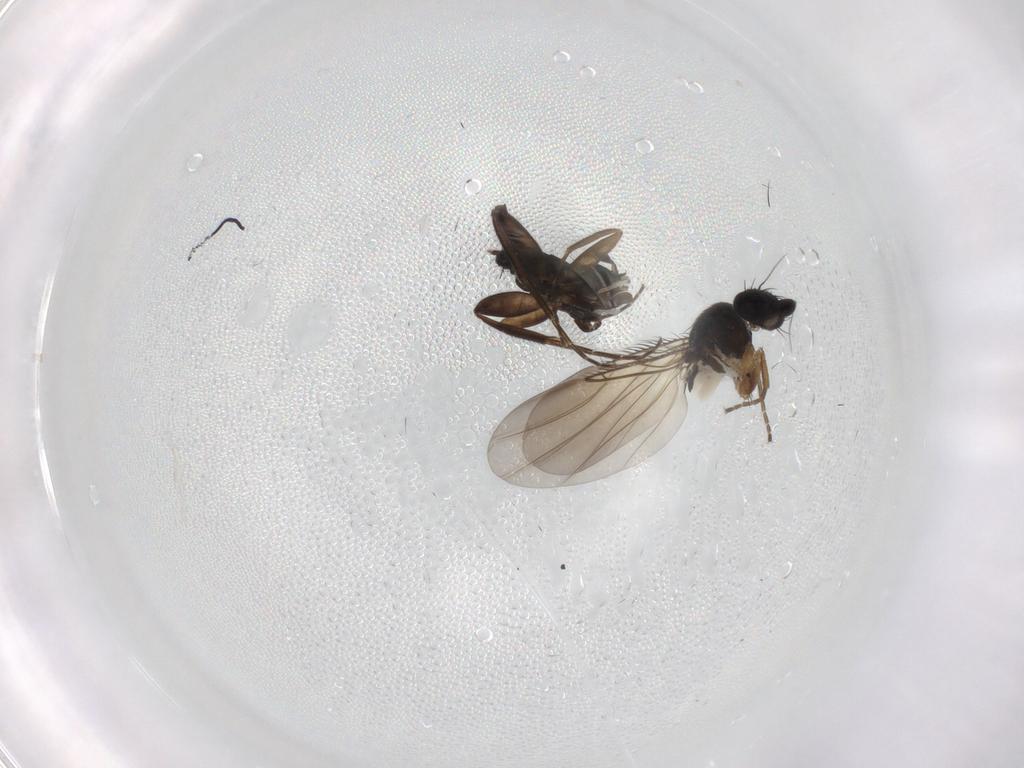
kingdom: Animalia
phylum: Arthropoda
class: Insecta
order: Diptera
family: Phoridae
